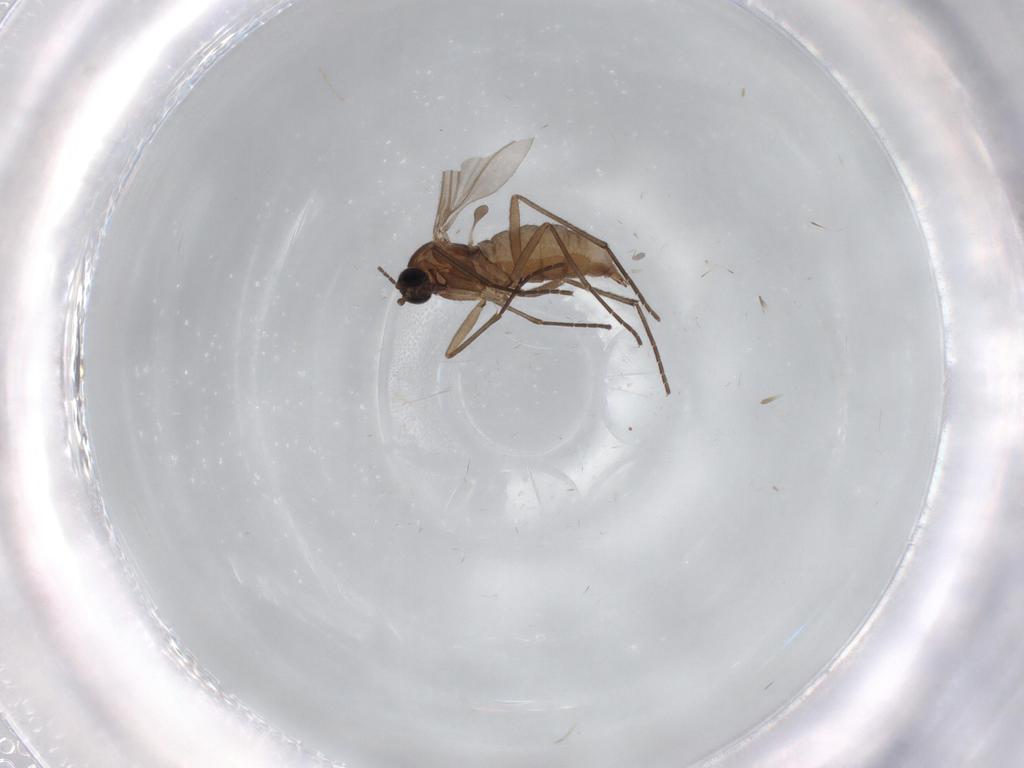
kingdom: Animalia
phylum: Arthropoda
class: Insecta
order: Diptera
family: Sciaridae
